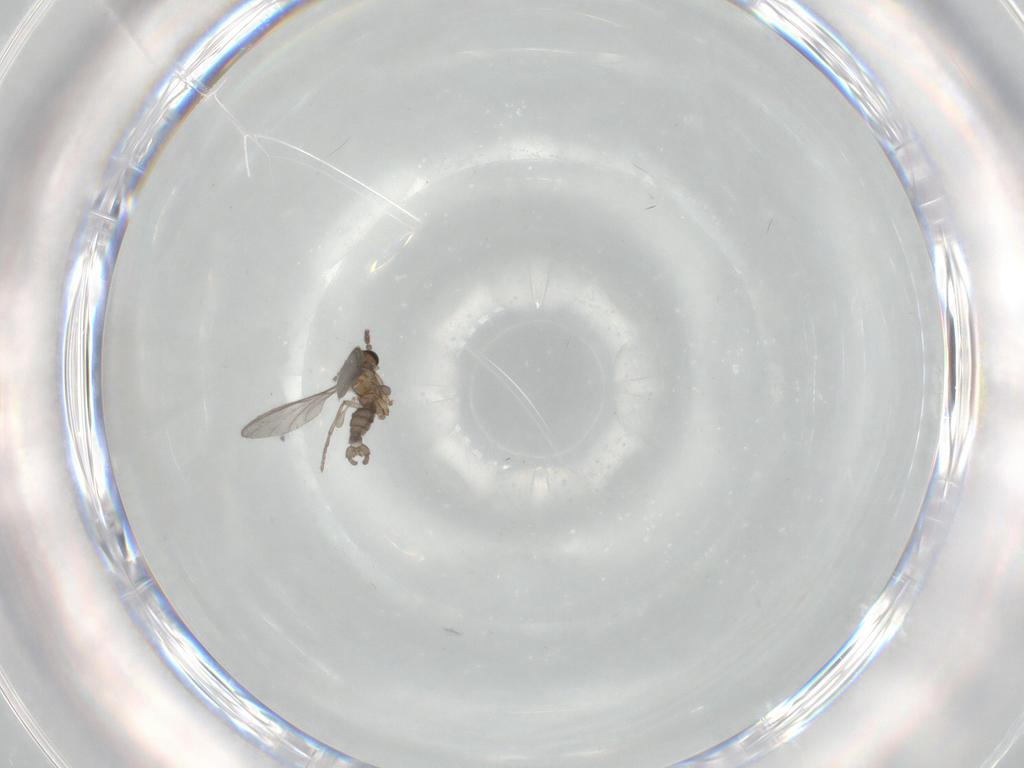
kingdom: Animalia
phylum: Arthropoda
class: Insecta
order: Diptera
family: Sciaridae
